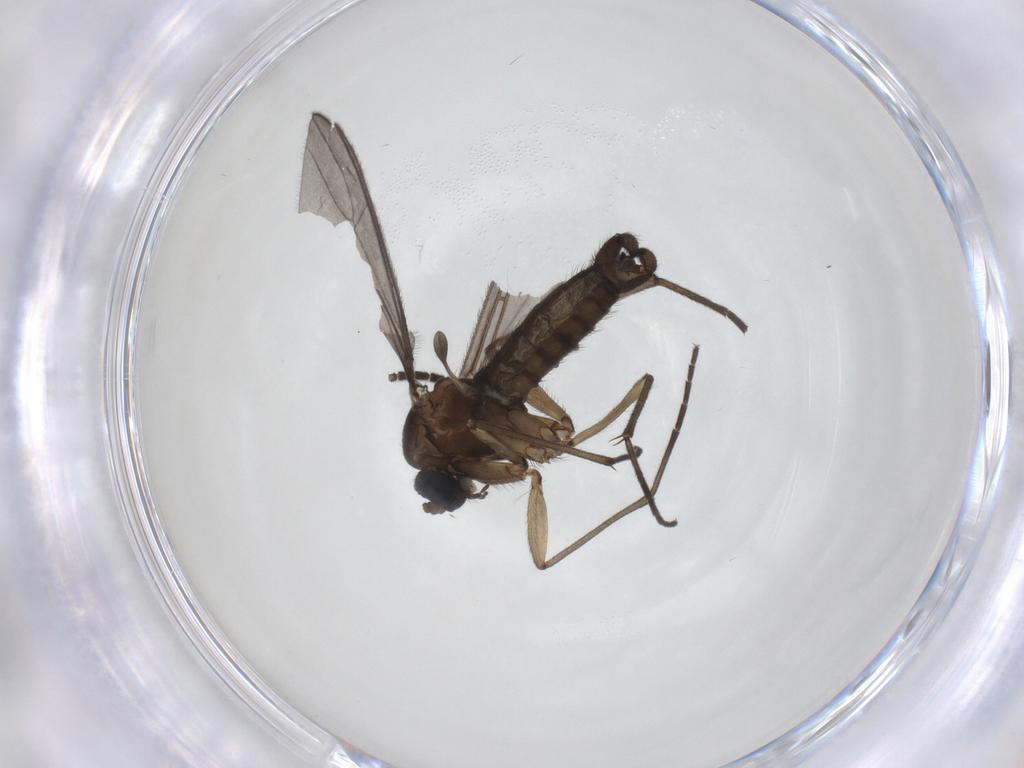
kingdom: Animalia
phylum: Arthropoda
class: Insecta
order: Diptera
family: Sciaridae
